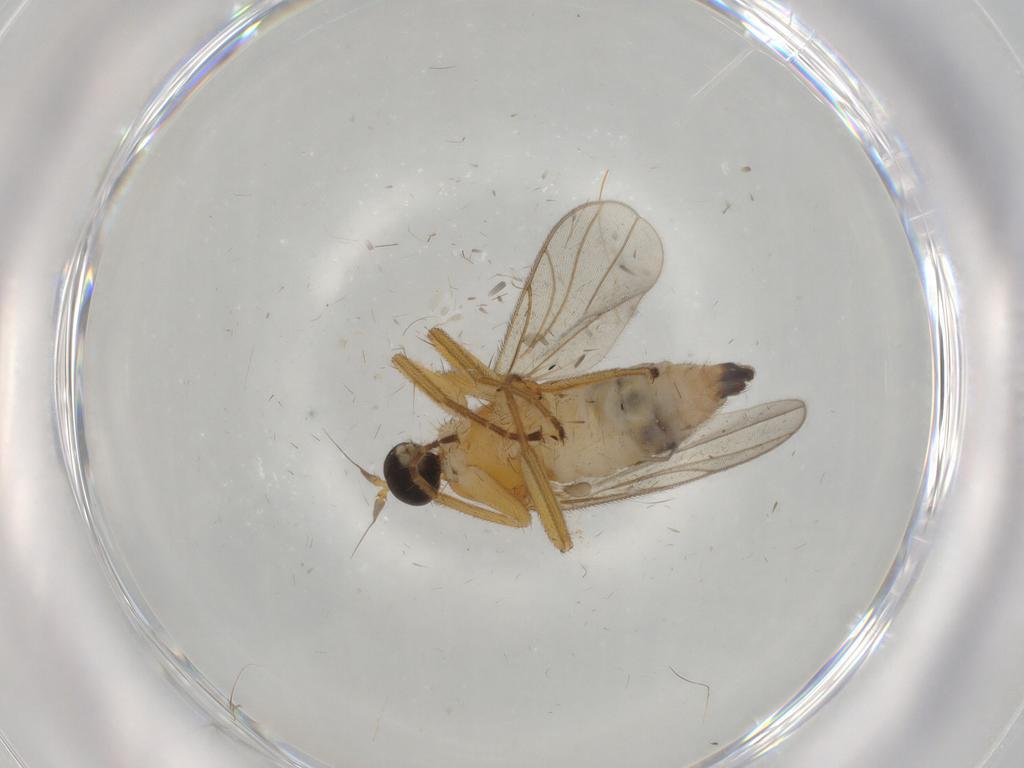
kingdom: Animalia
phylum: Arthropoda
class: Insecta
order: Diptera
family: Hybotidae
